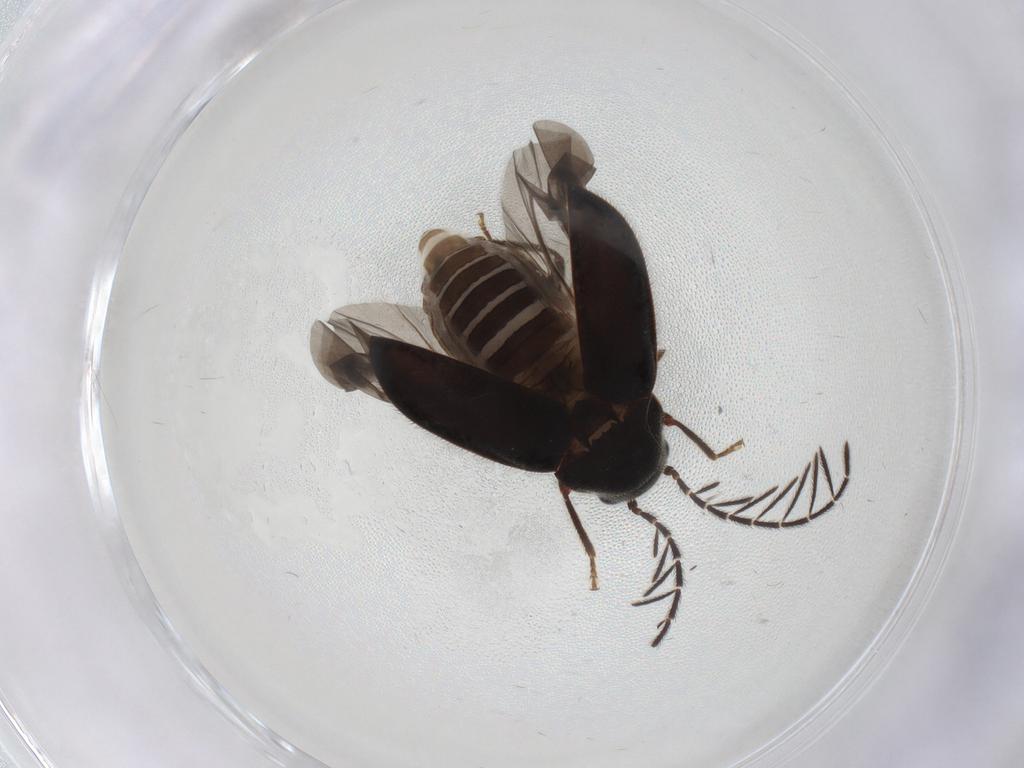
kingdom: Animalia
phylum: Arthropoda
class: Insecta
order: Coleoptera
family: Ptilodactylidae
